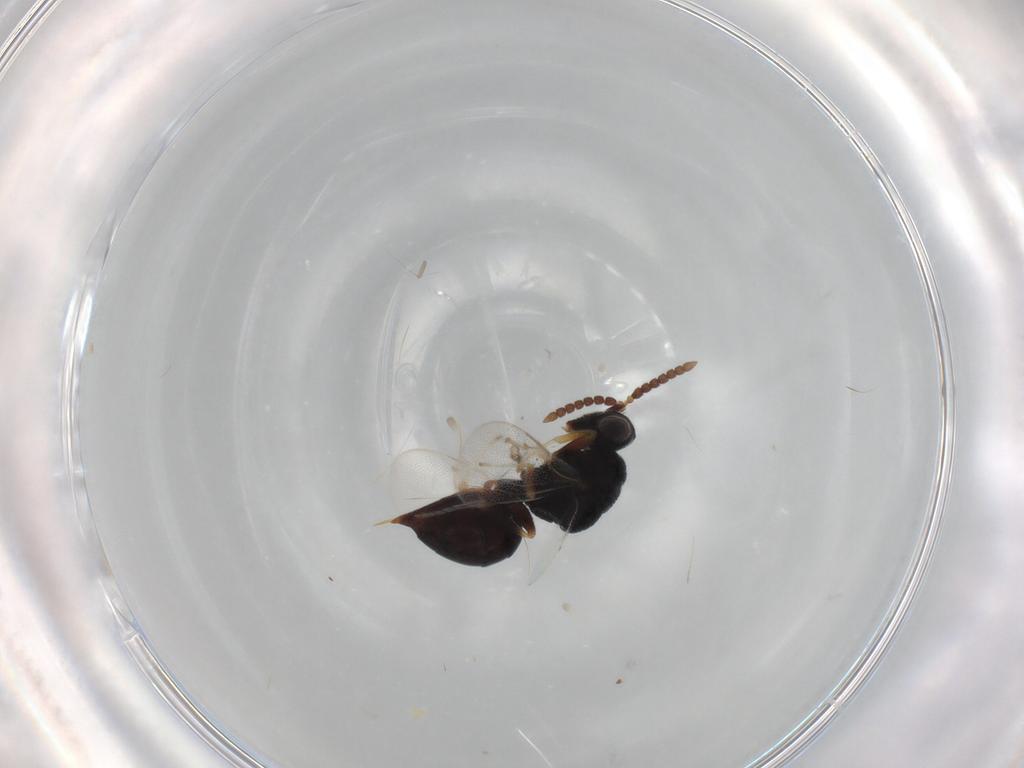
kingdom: Animalia
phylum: Arthropoda
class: Insecta
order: Hymenoptera
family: Eurytomidae
